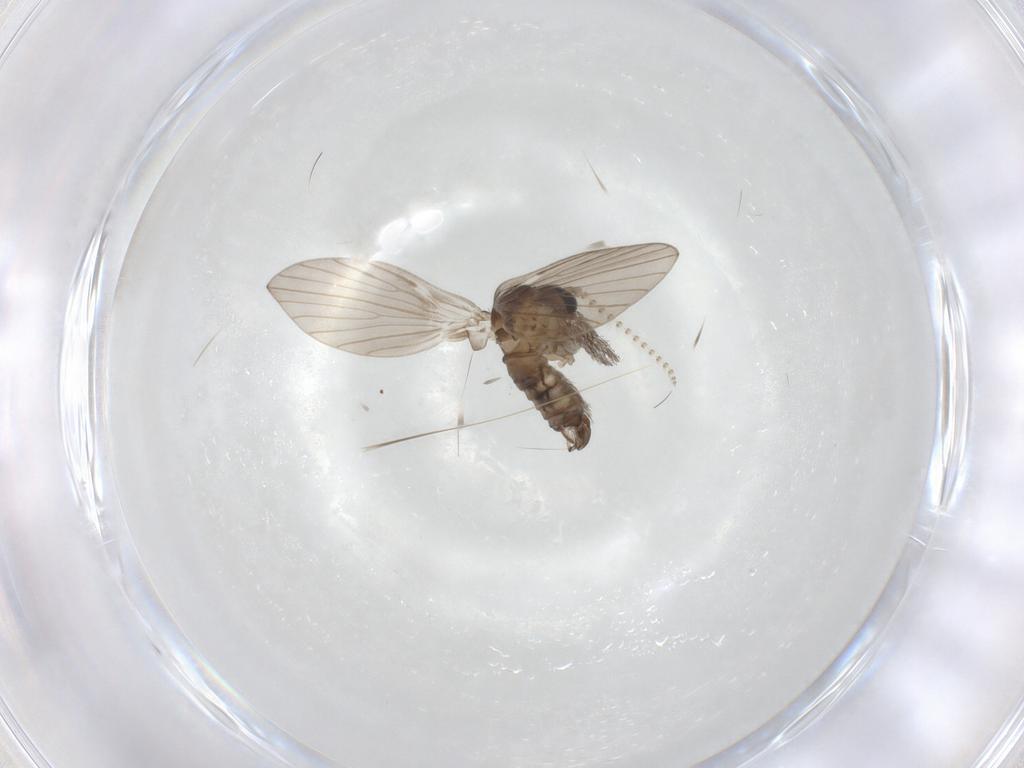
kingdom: Animalia
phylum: Arthropoda
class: Insecta
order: Diptera
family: Psychodidae
